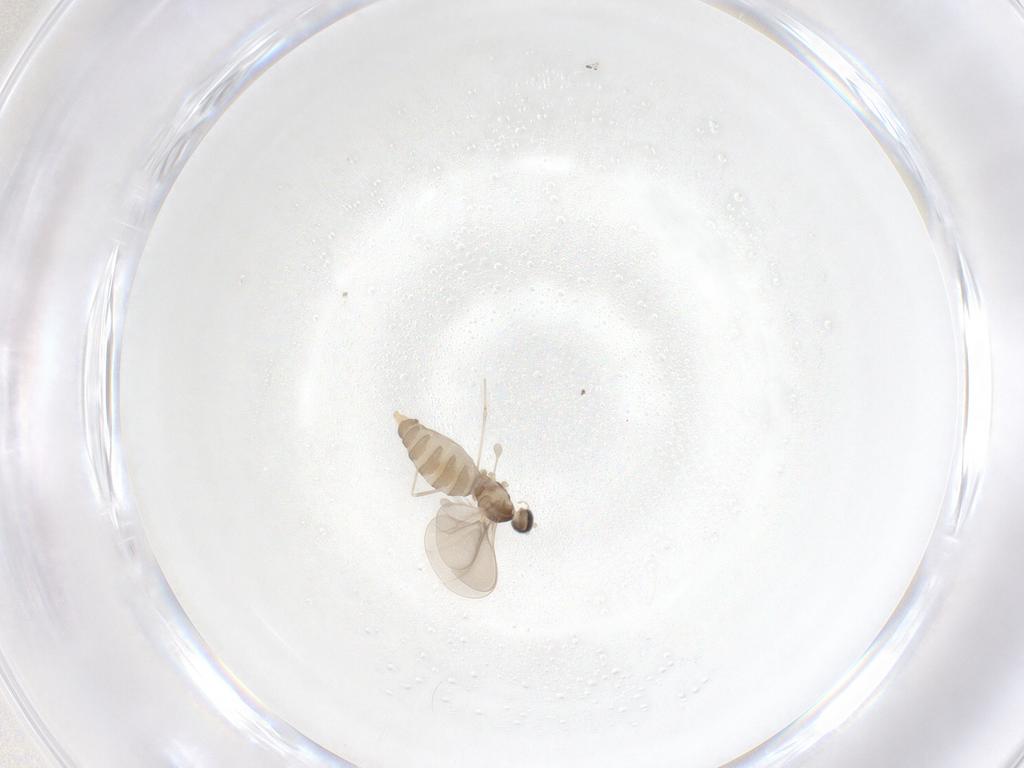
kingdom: Animalia
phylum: Arthropoda
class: Insecta
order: Diptera
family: Cecidomyiidae
